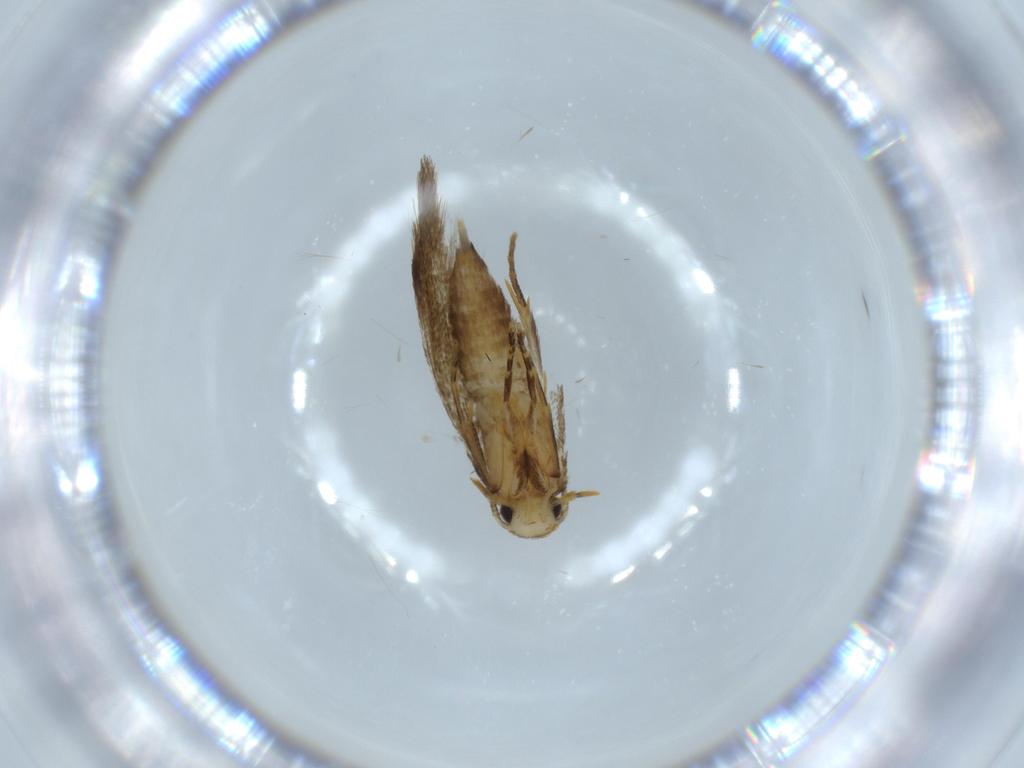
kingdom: Animalia
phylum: Arthropoda
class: Insecta
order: Lepidoptera
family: Tineidae
